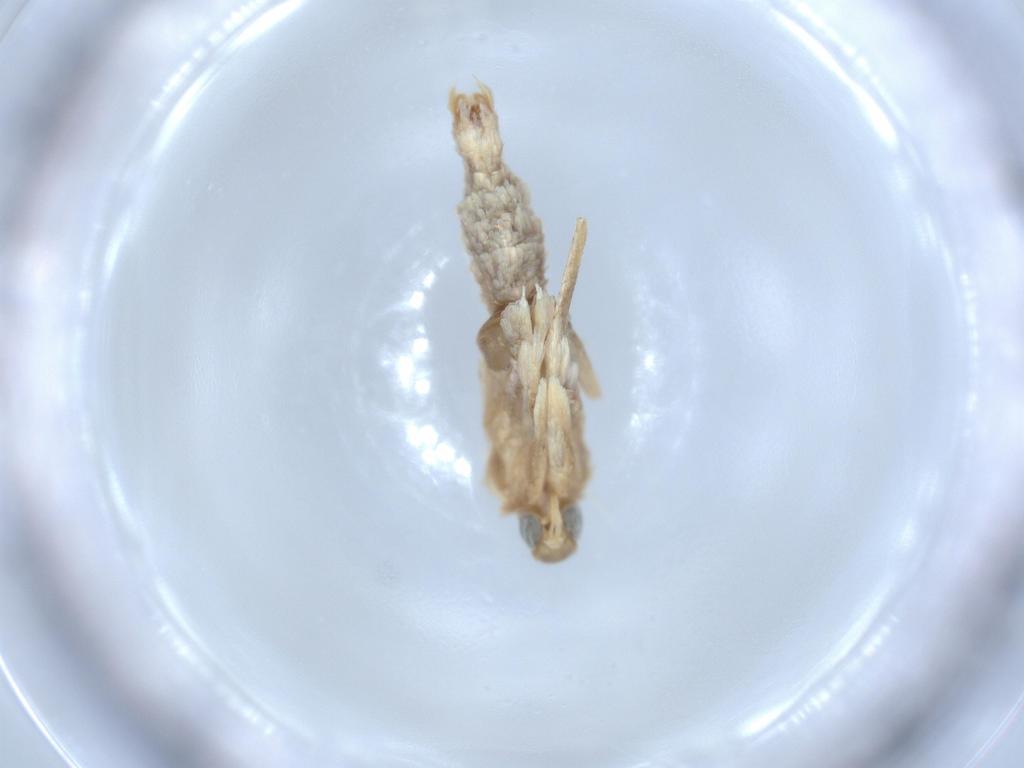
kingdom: Animalia
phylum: Arthropoda
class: Insecta
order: Lepidoptera
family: Coleophoridae
